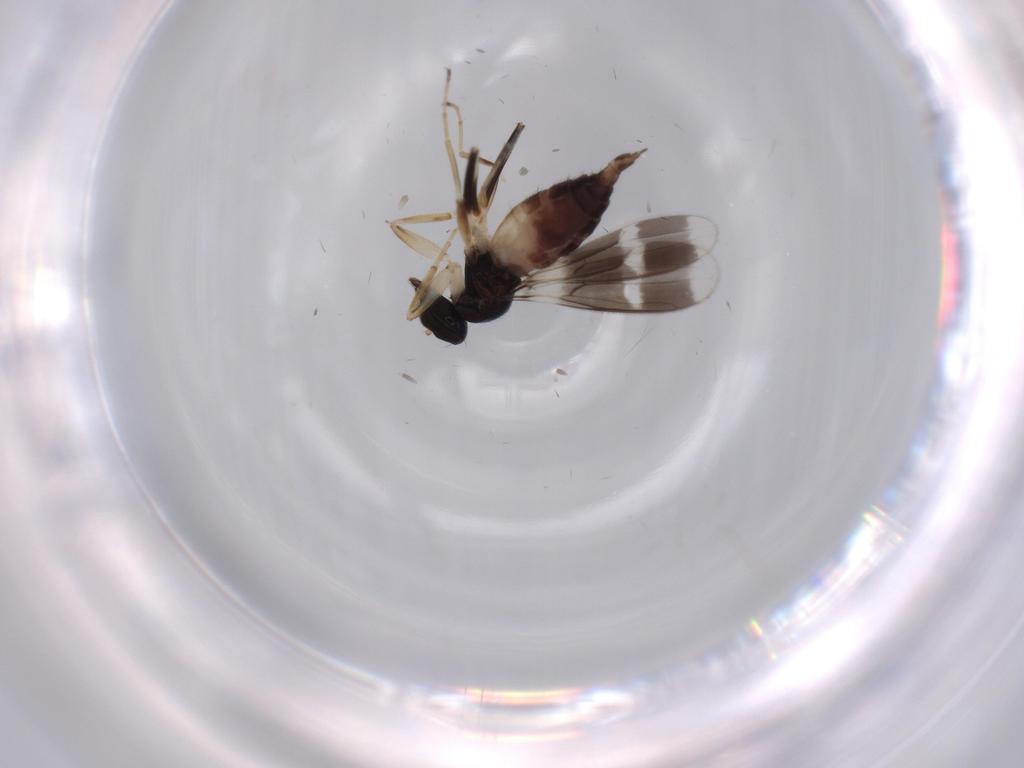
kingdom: Animalia
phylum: Arthropoda
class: Insecta
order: Diptera
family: Hybotidae
